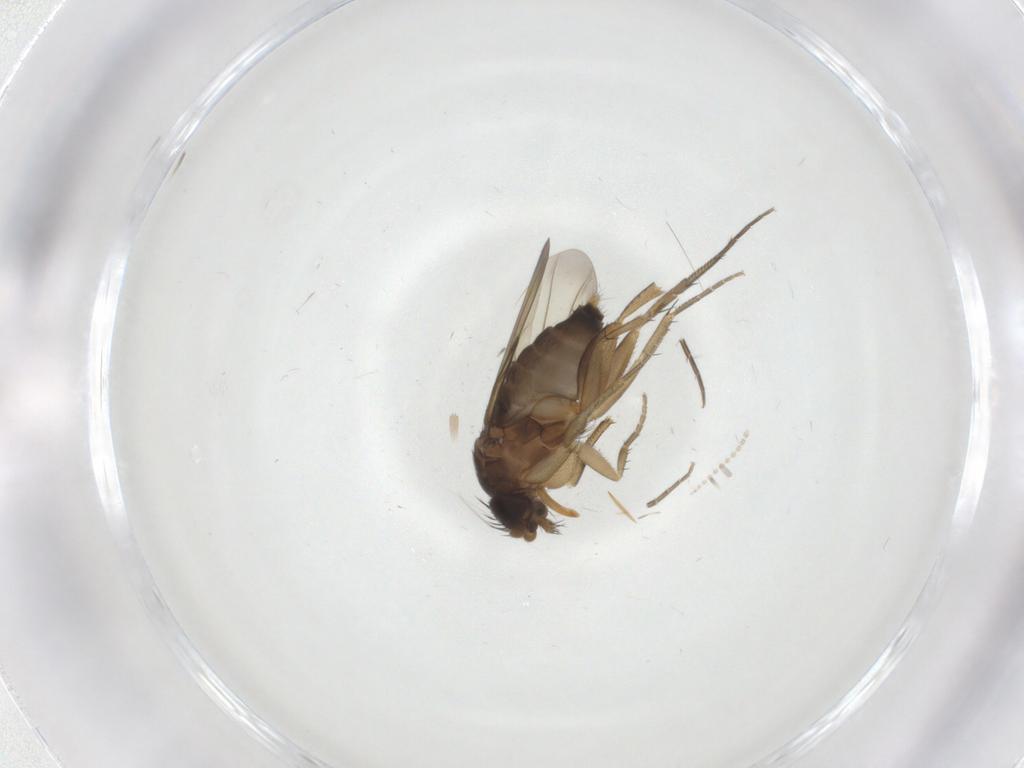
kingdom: Animalia
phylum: Arthropoda
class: Insecta
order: Diptera
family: Phoridae
